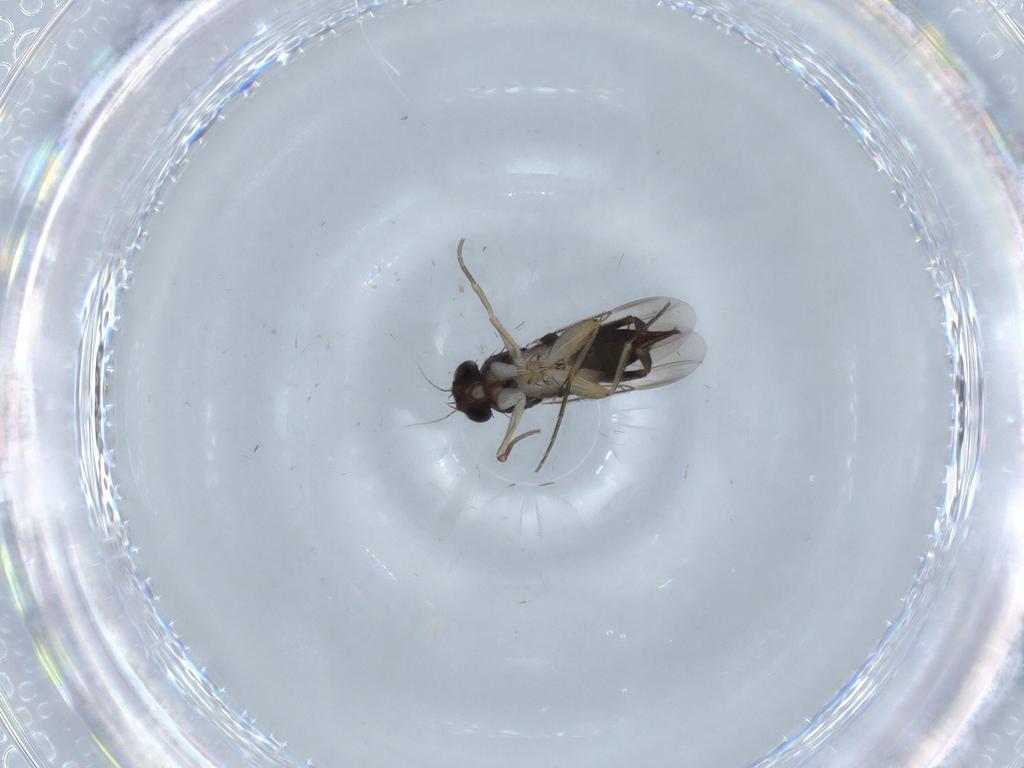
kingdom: Animalia
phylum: Arthropoda
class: Insecta
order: Diptera
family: Phoridae
